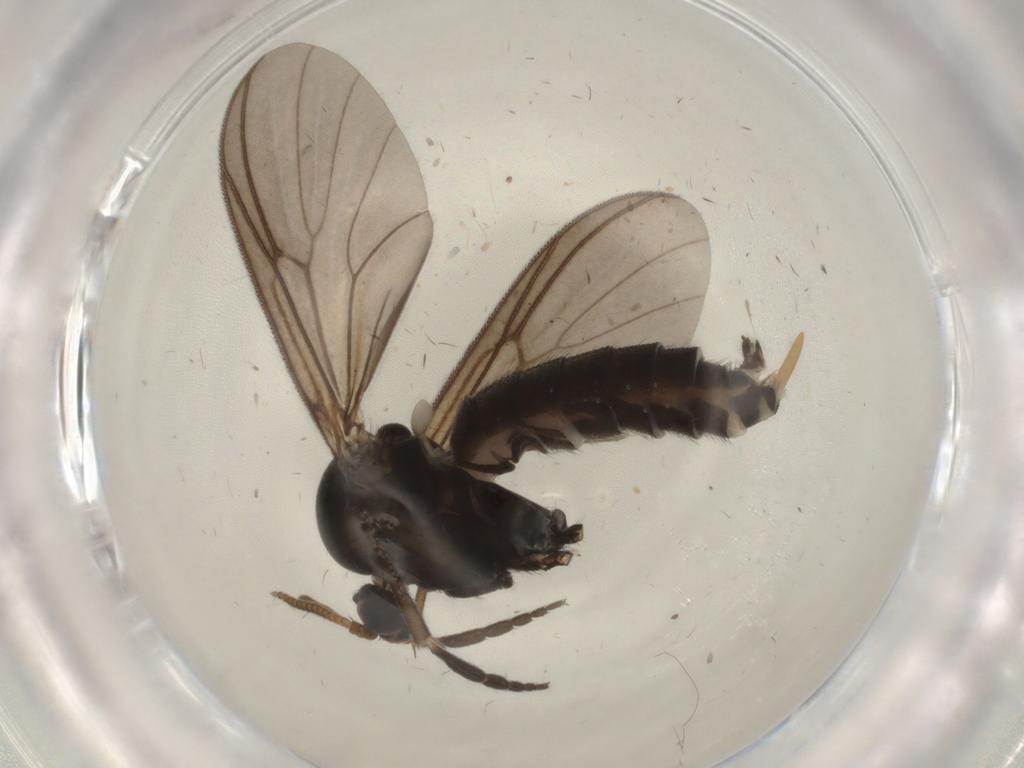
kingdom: Animalia
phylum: Arthropoda
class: Insecta
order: Diptera
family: Mycetophilidae
